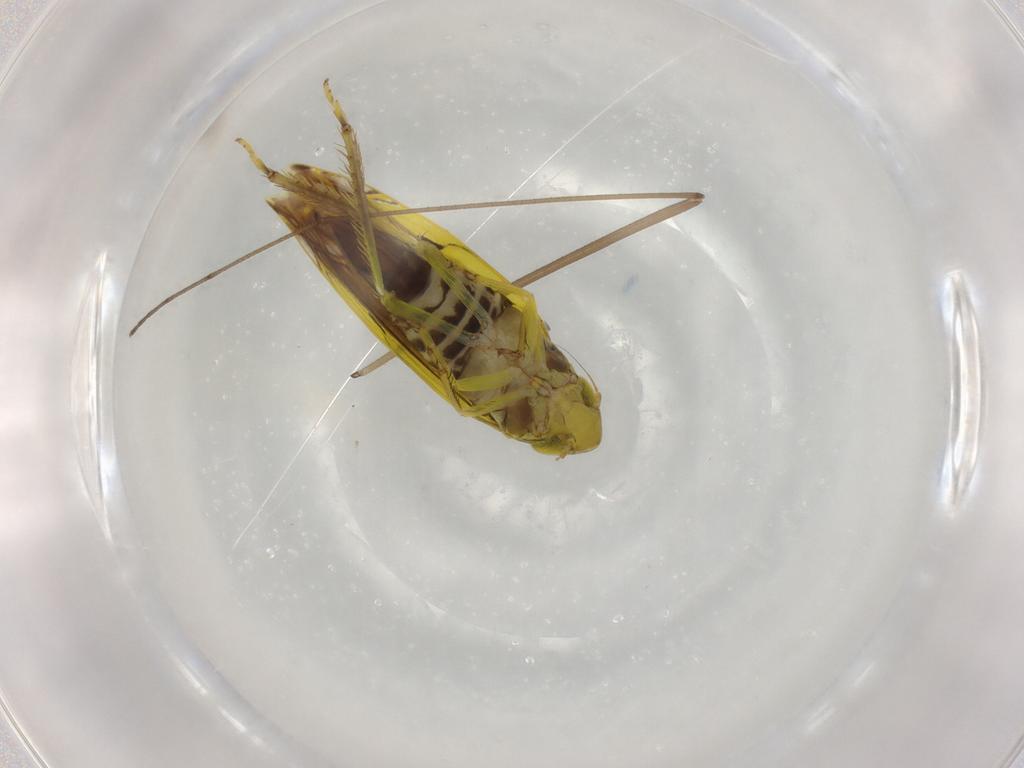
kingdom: Animalia
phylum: Arthropoda
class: Insecta
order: Hemiptera
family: Cicadellidae
